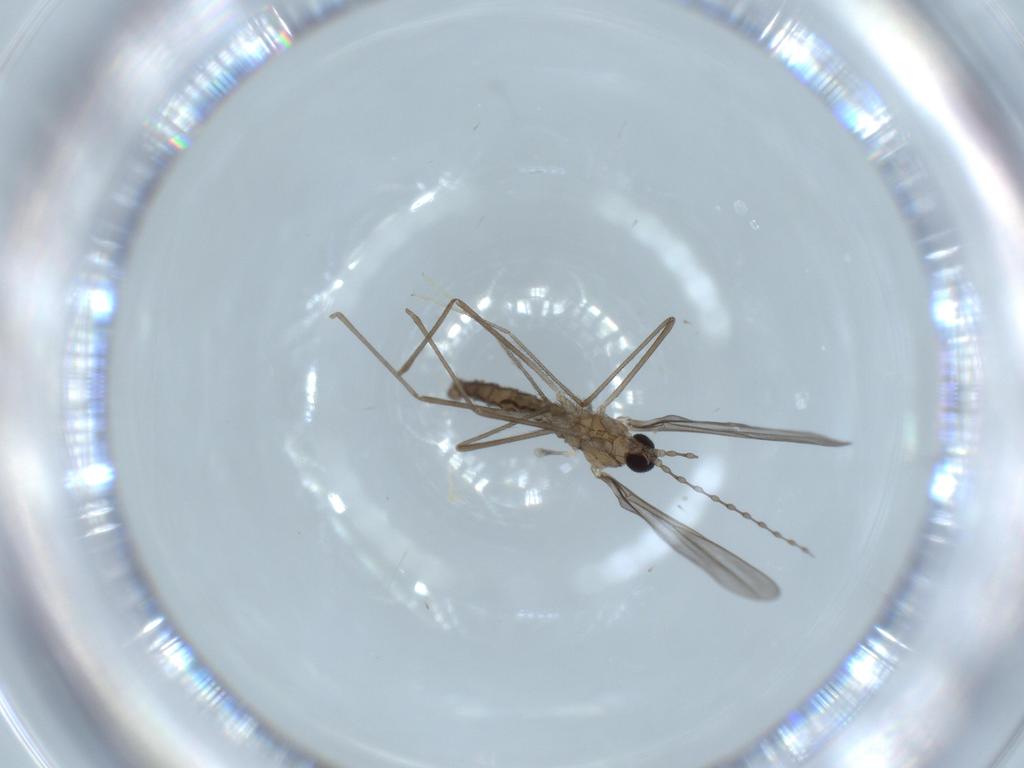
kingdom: Animalia
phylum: Arthropoda
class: Insecta
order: Diptera
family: Cecidomyiidae
